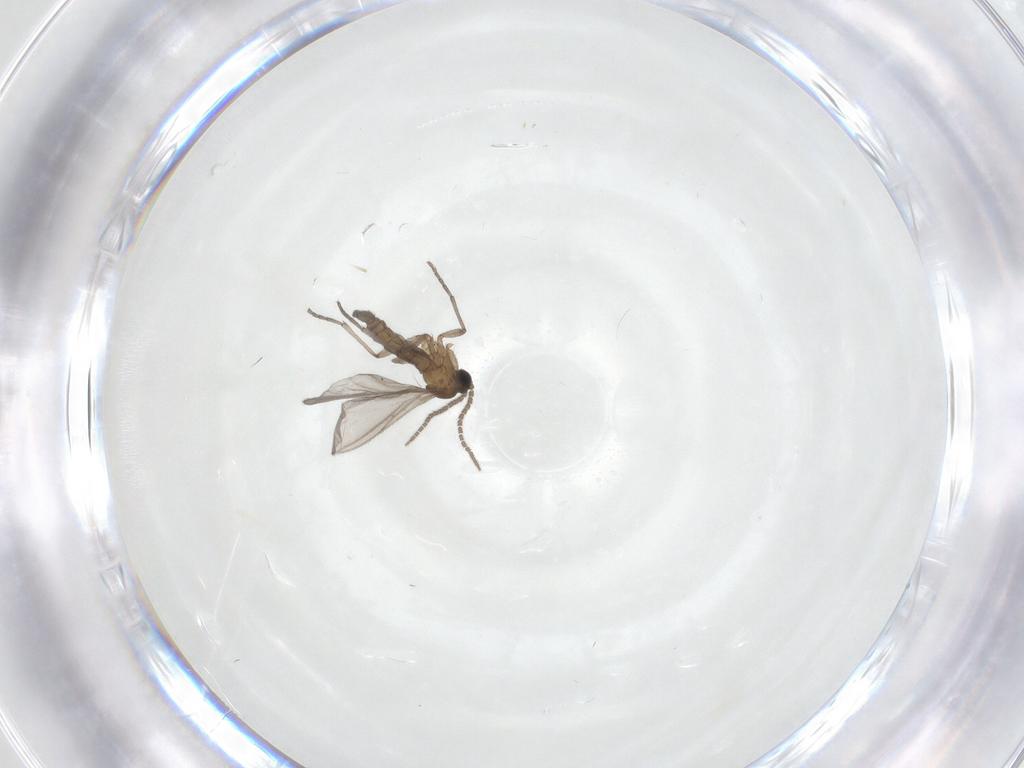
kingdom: Animalia
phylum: Arthropoda
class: Insecta
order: Diptera
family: Sciaridae
